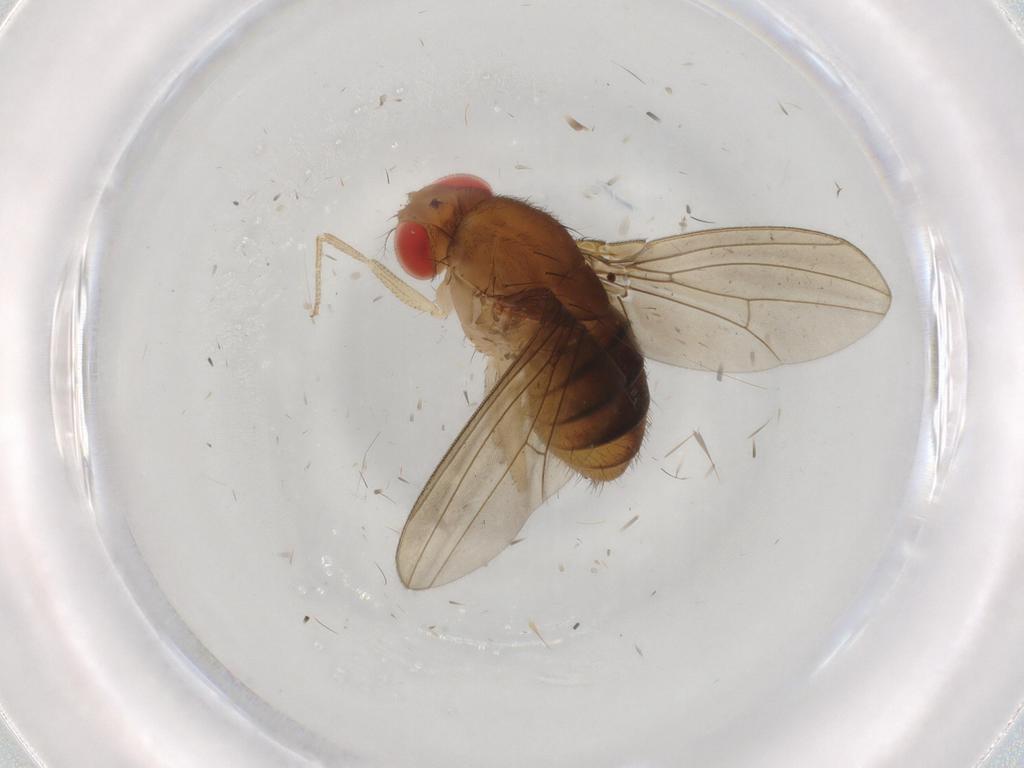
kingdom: Animalia
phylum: Arthropoda
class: Insecta
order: Diptera
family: Drosophilidae
